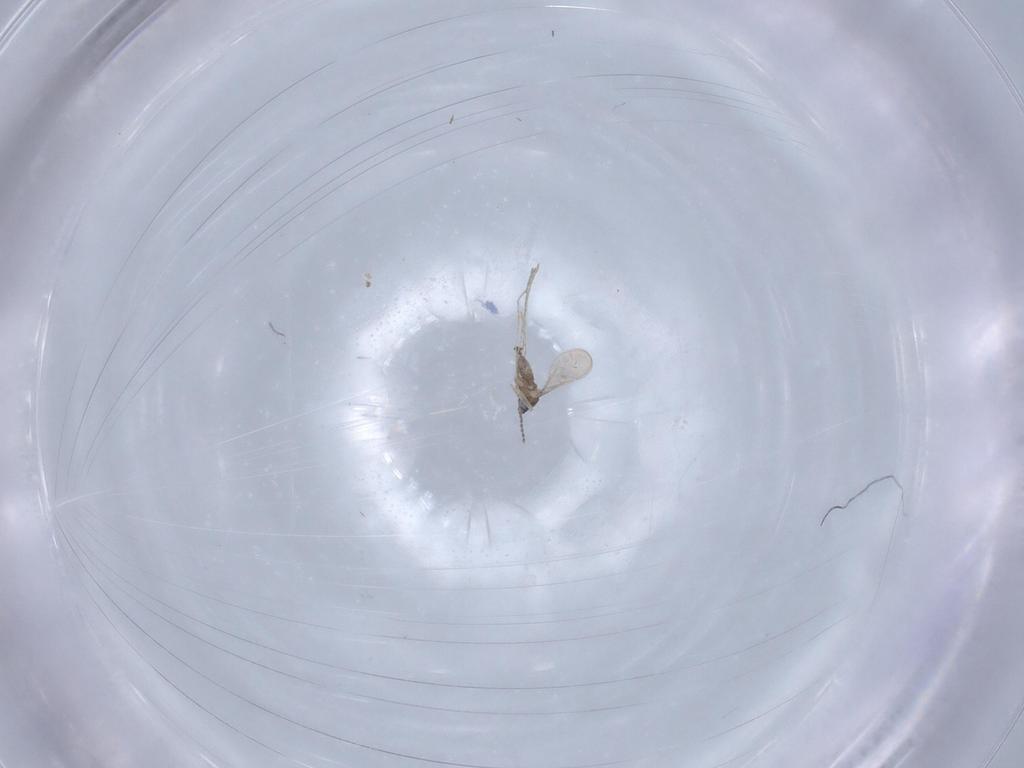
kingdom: Animalia
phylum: Arthropoda
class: Insecta
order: Diptera
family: Cecidomyiidae
